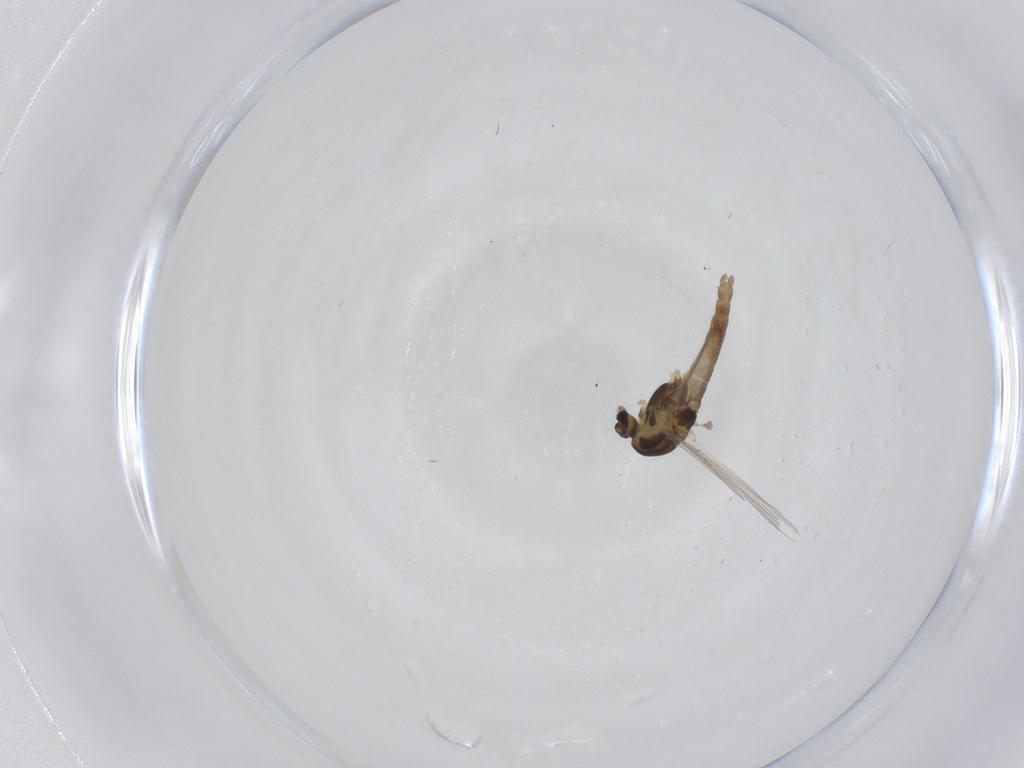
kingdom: Animalia
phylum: Arthropoda
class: Insecta
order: Diptera
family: Chironomidae
